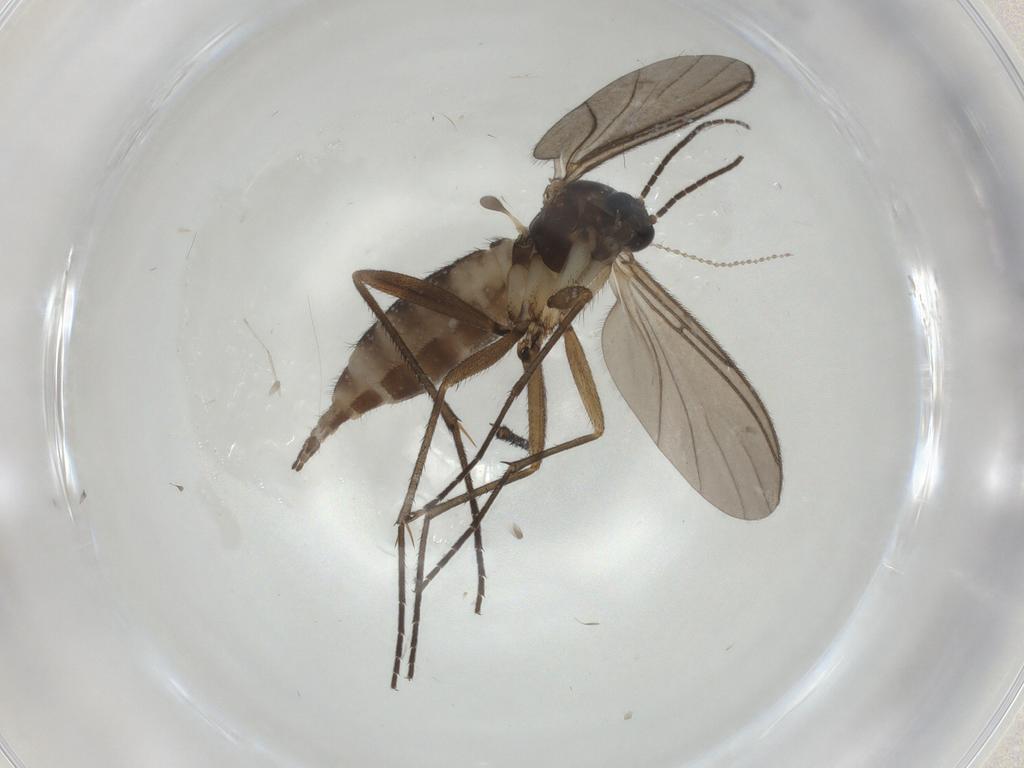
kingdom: Animalia
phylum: Arthropoda
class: Insecta
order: Diptera
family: Sciaridae
